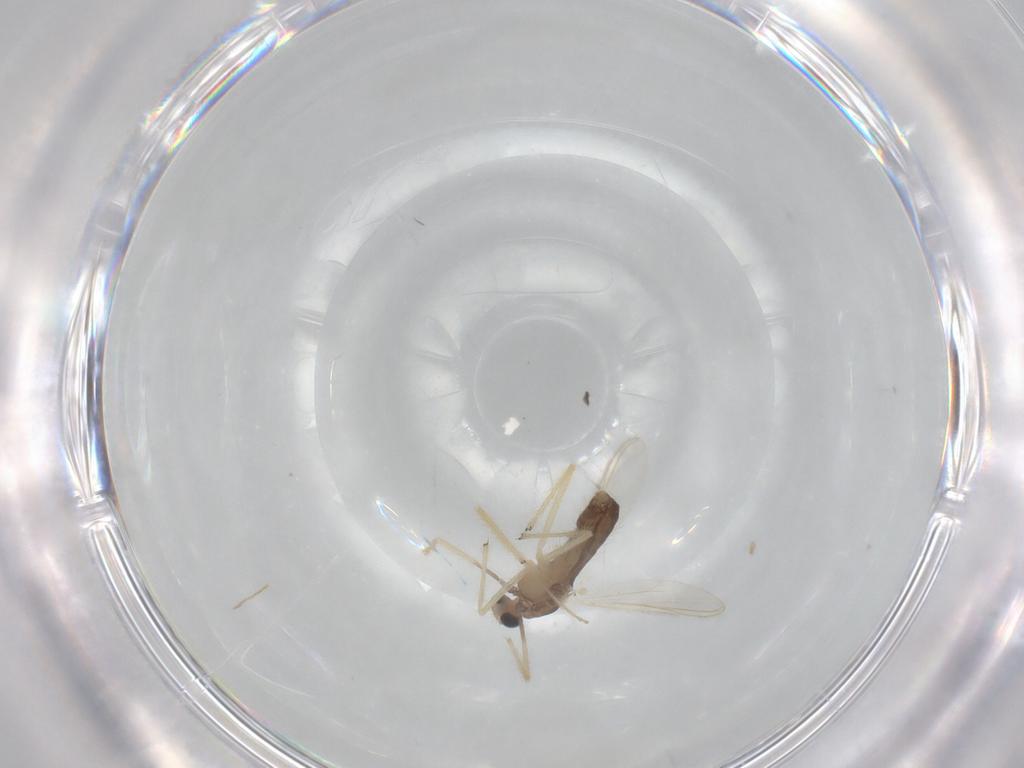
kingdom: Animalia
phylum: Arthropoda
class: Insecta
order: Diptera
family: Chironomidae
